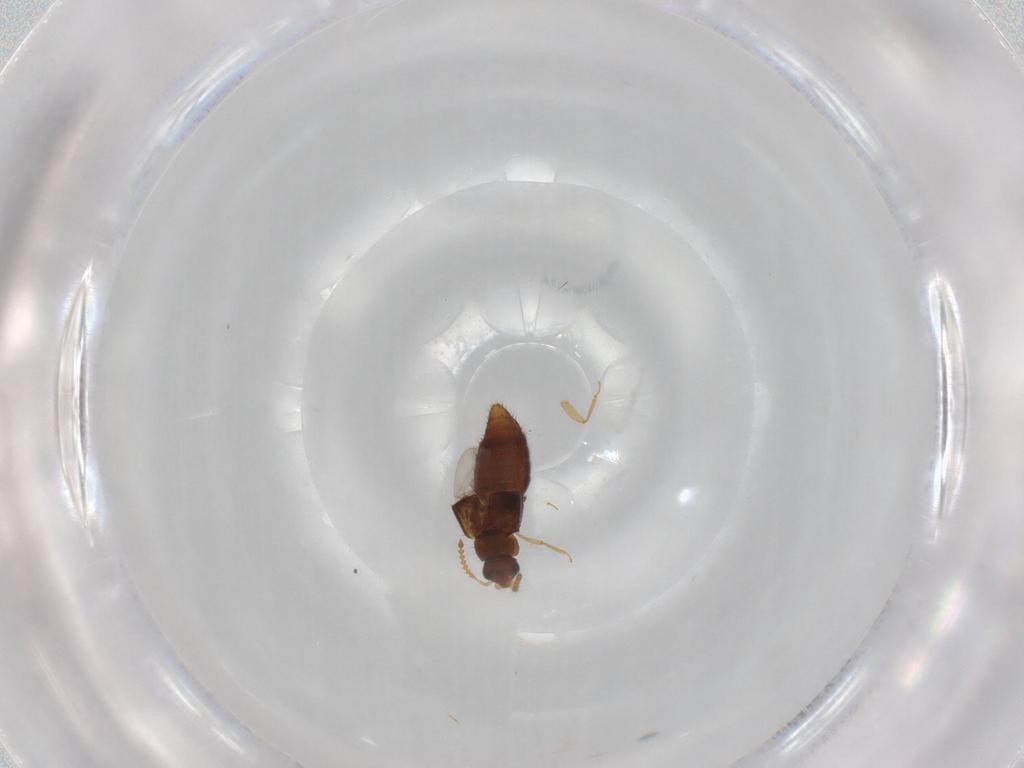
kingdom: Animalia
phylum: Arthropoda
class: Insecta
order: Coleoptera
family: Staphylinidae
